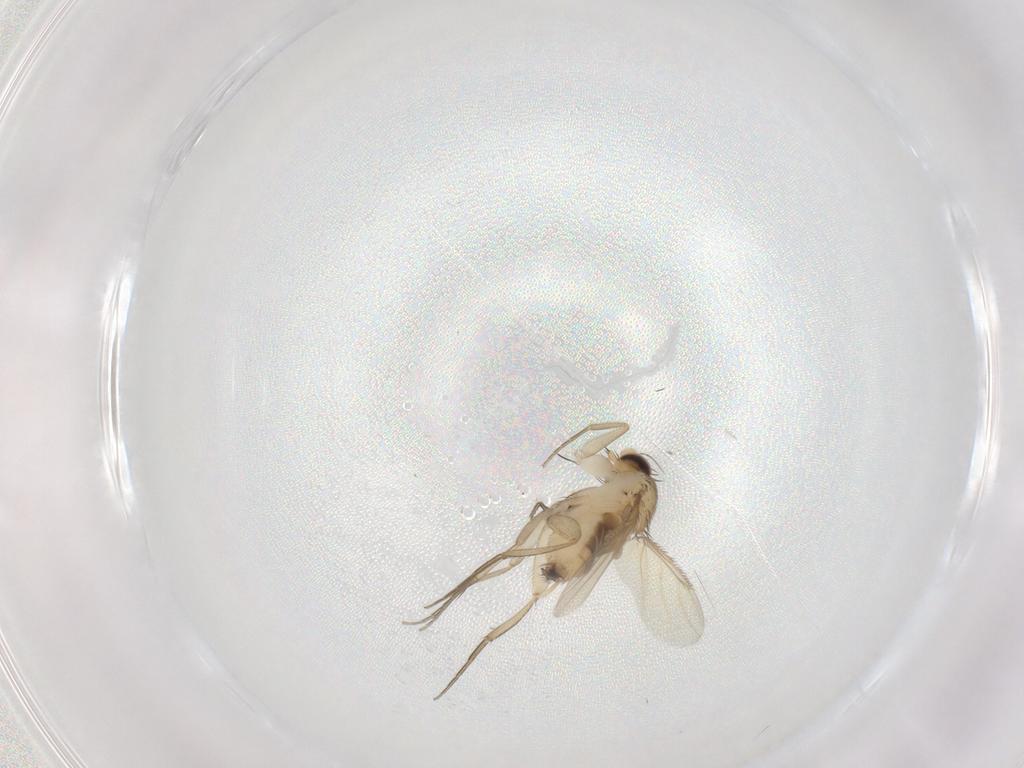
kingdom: Animalia
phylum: Arthropoda
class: Insecta
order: Diptera
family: Phoridae
